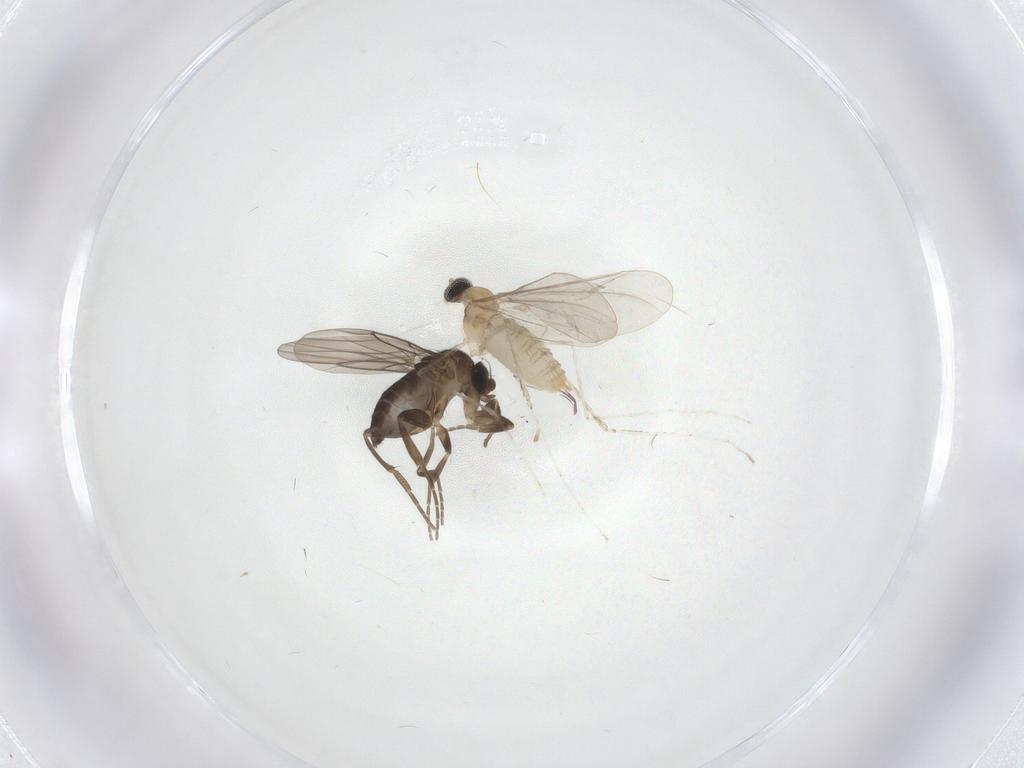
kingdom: Animalia
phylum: Arthropoda
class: Insecta
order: Diptera
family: Cecidomyiidae
